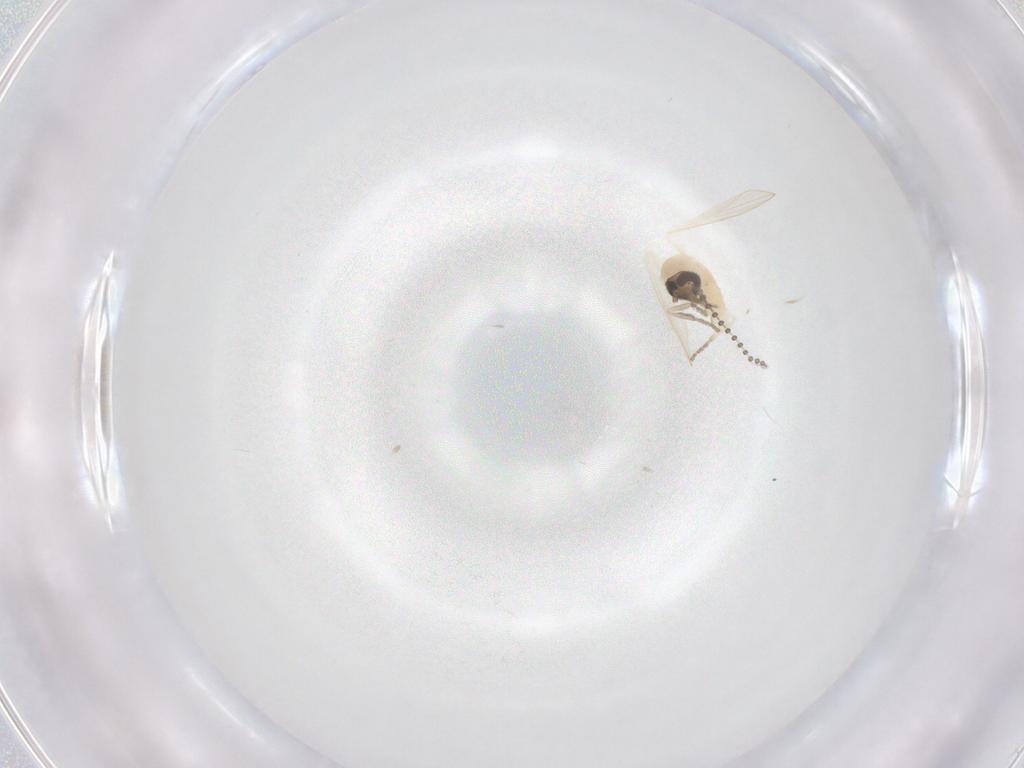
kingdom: Animalia
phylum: Arthropoda
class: Insecta
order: Diptera
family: Psychodidae
